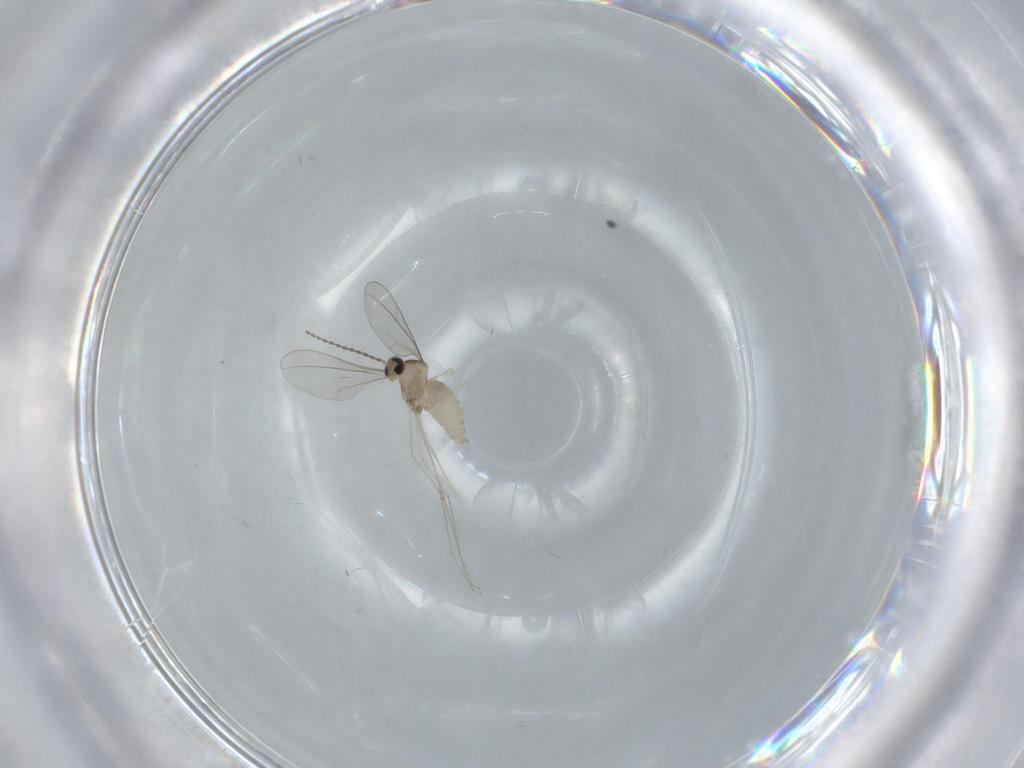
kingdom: Animalia
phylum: Arthropoda
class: Insecta
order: Diptera
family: Cecidomyiidae
